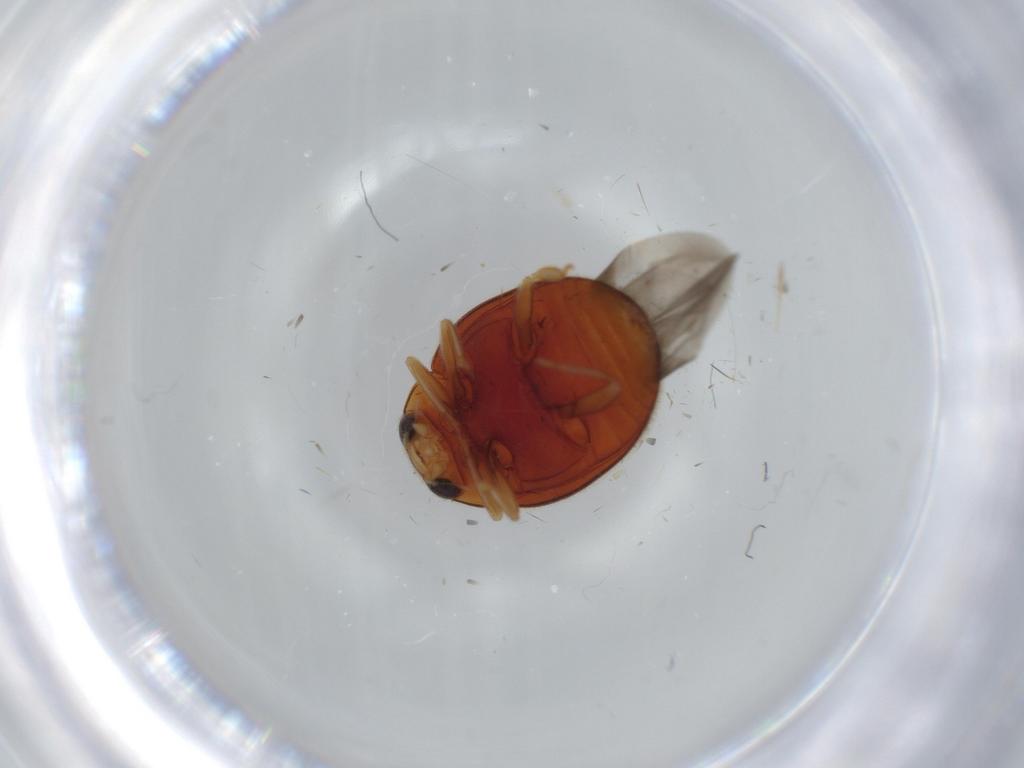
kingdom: Animalia
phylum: Arthropoda
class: Insecta
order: Coleoptera
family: Coccinellidae
